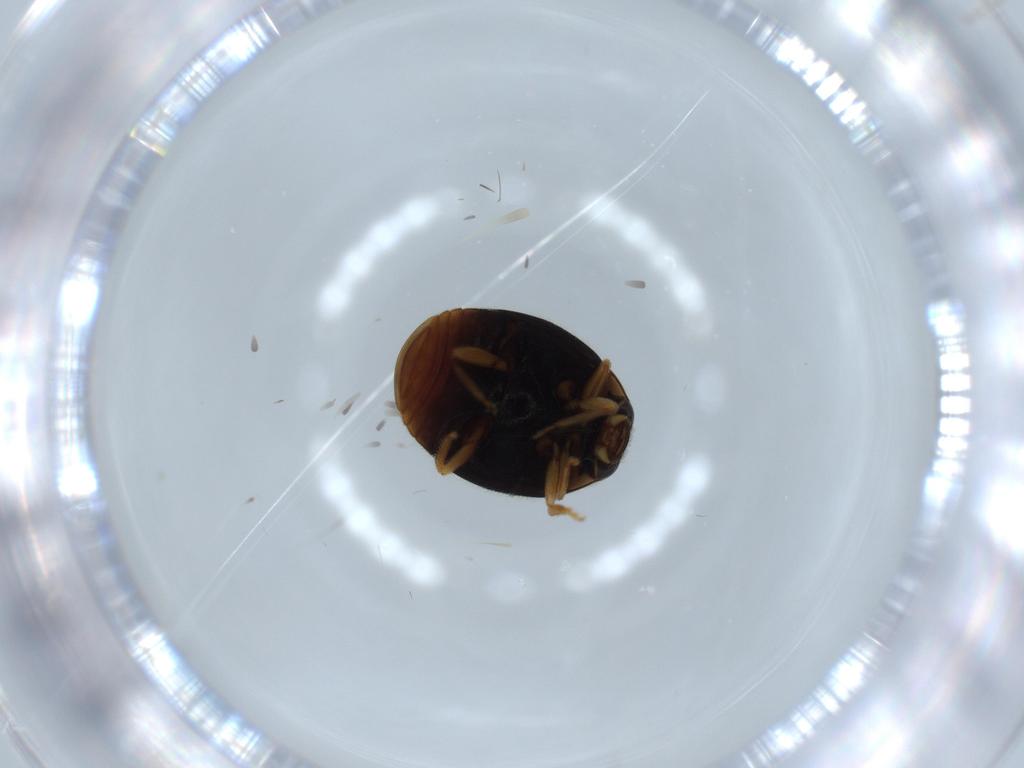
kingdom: Animalia
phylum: Arthropoda
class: Insecta
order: Coleoptera
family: Coccinellidae
